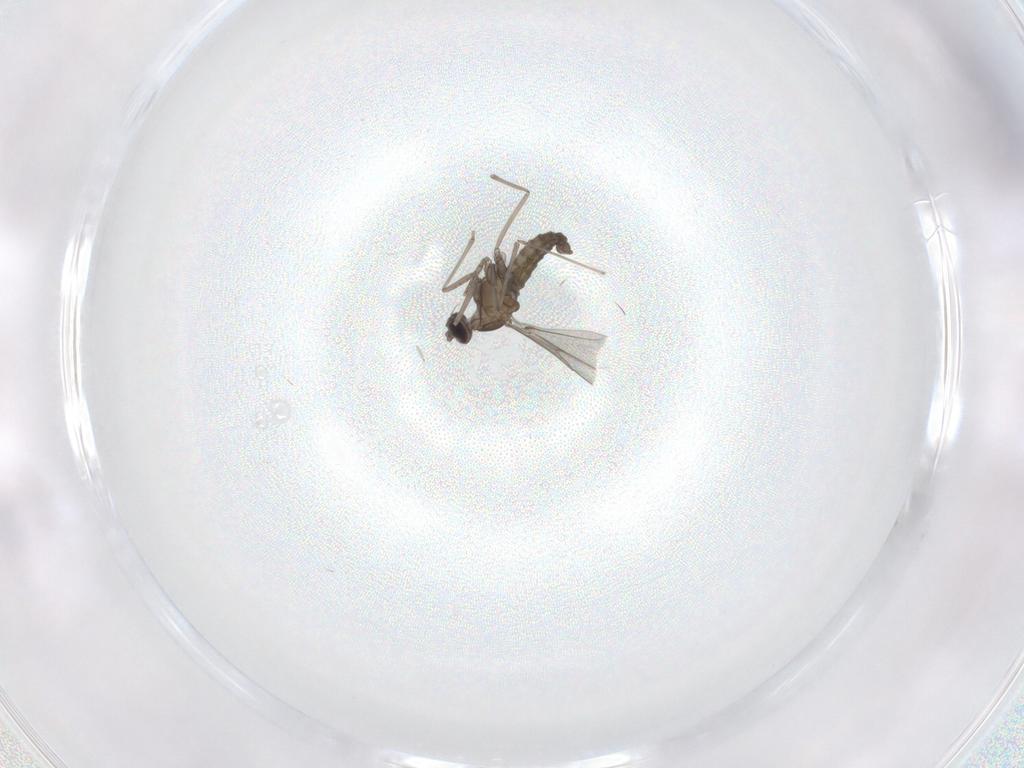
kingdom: Animalia
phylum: Arthropoda
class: Insecta
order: Diptera
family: Cecidomyiidae
